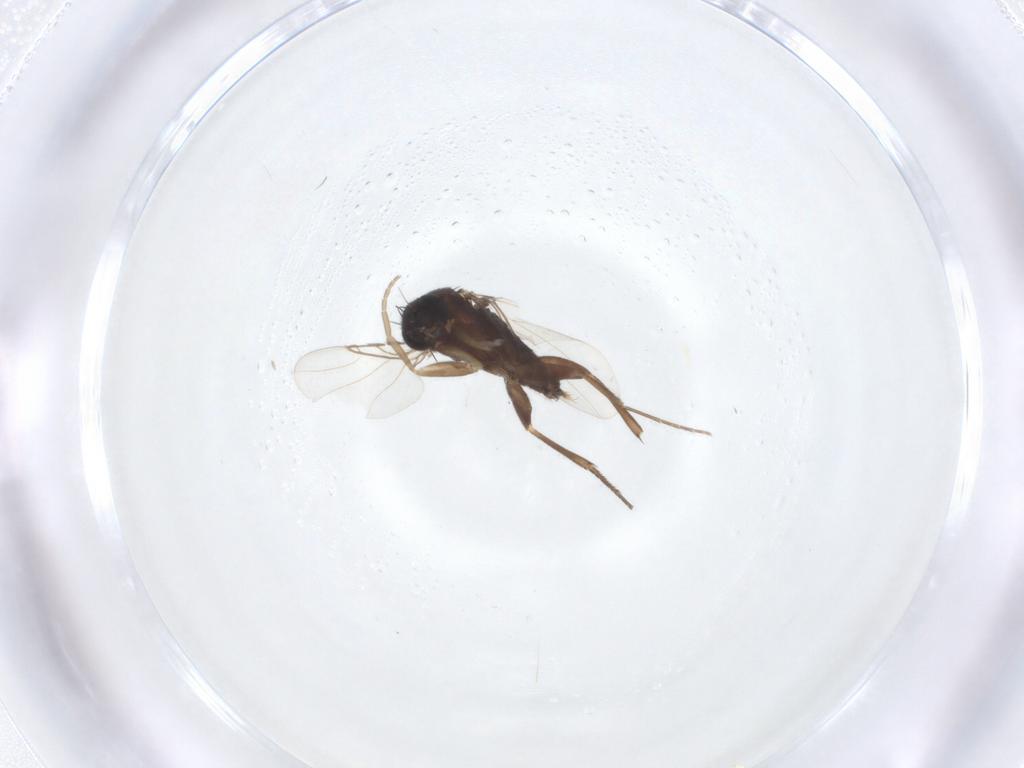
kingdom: Animalia
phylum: Arthropoda
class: Insecta
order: Diptera
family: Phoridae
